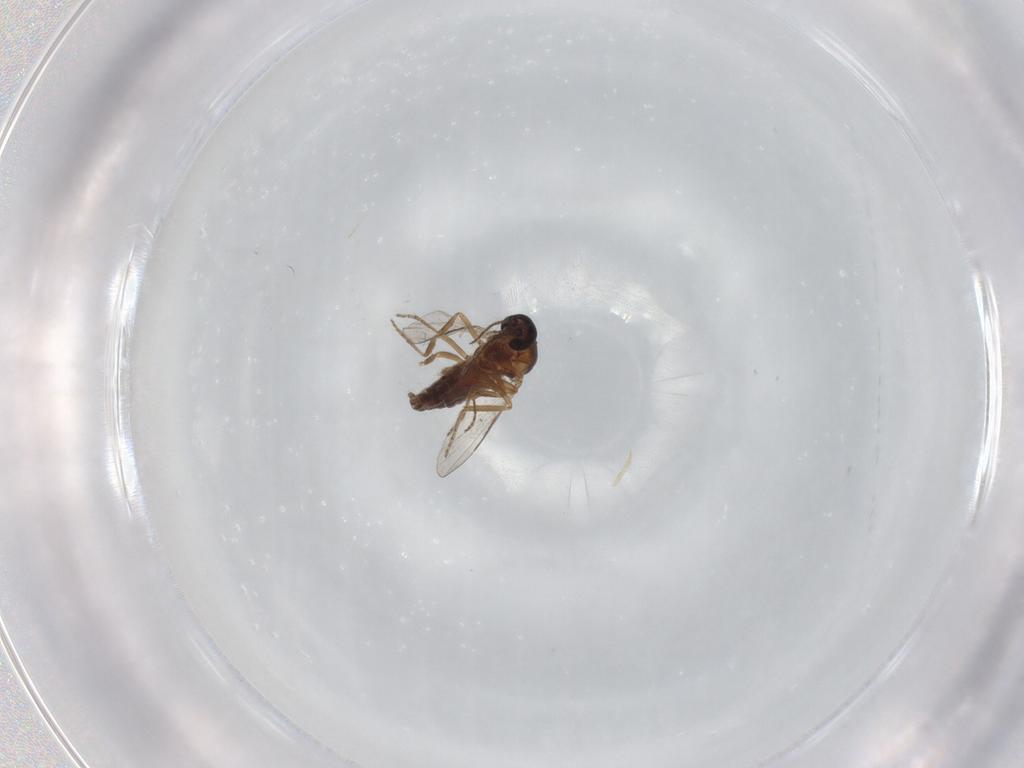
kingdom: Animalia
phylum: Arthropoda
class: Insecta
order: Diptera
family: Ceratopogonidae
